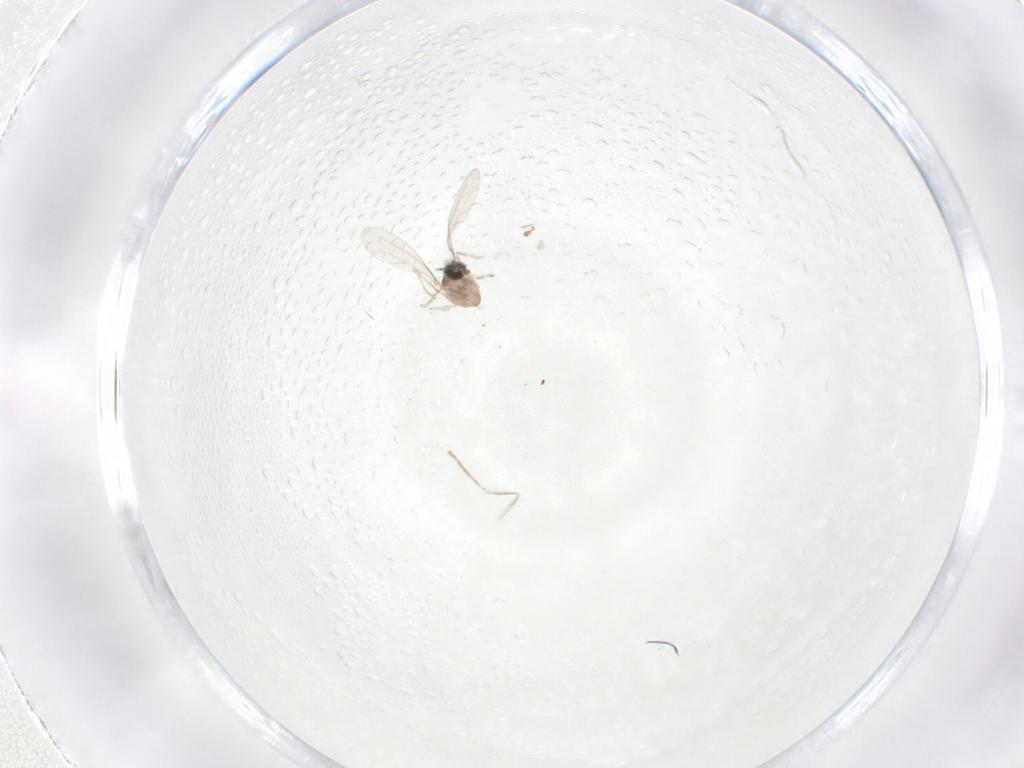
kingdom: Animalia
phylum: Arthropoda
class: Insecta
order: Diptera
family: Cecidomyiidae
